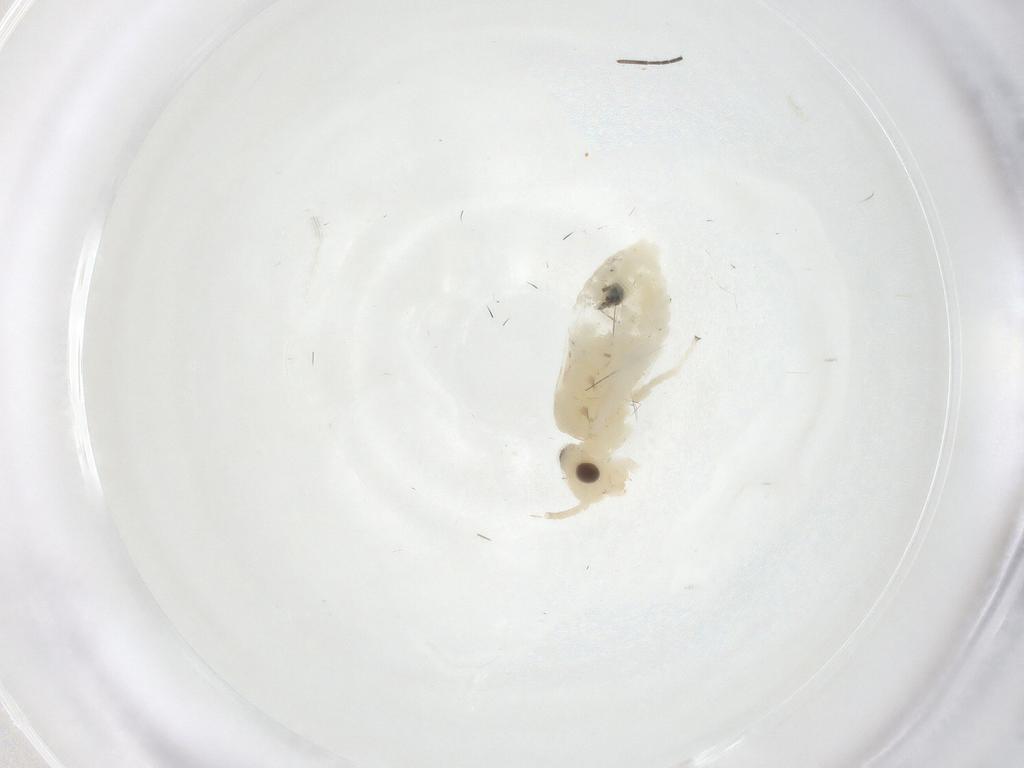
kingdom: Animalia
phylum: Arthropoda
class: Insecta
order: Psocodea
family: Caeciliusidae
